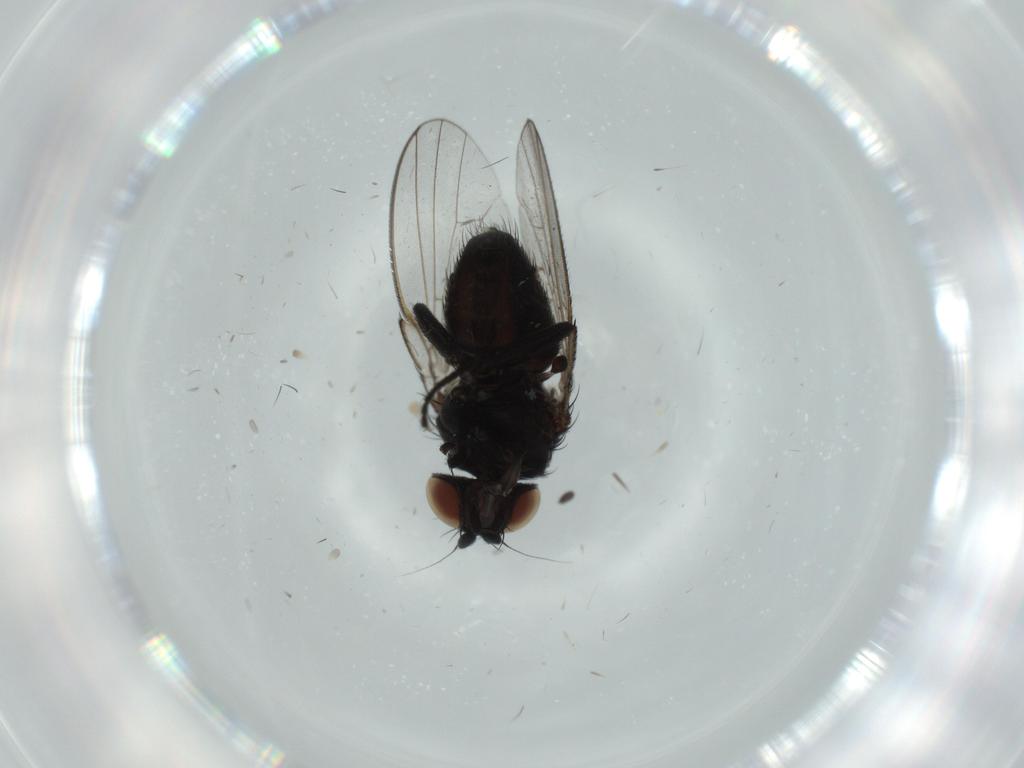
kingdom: Animalia
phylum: Arthropoda
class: Insecta
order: Diptera
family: Milichiidae
